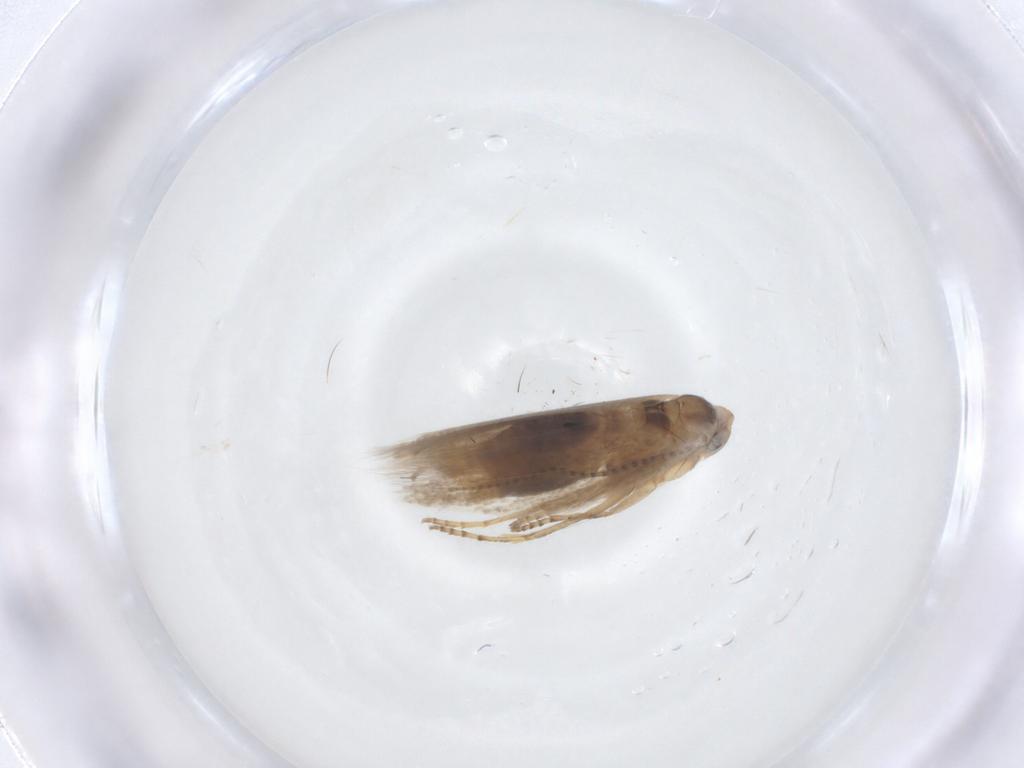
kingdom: Animalia
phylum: Arthropoda
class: Insecta
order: Lepidoptera
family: Bucculatricidae
